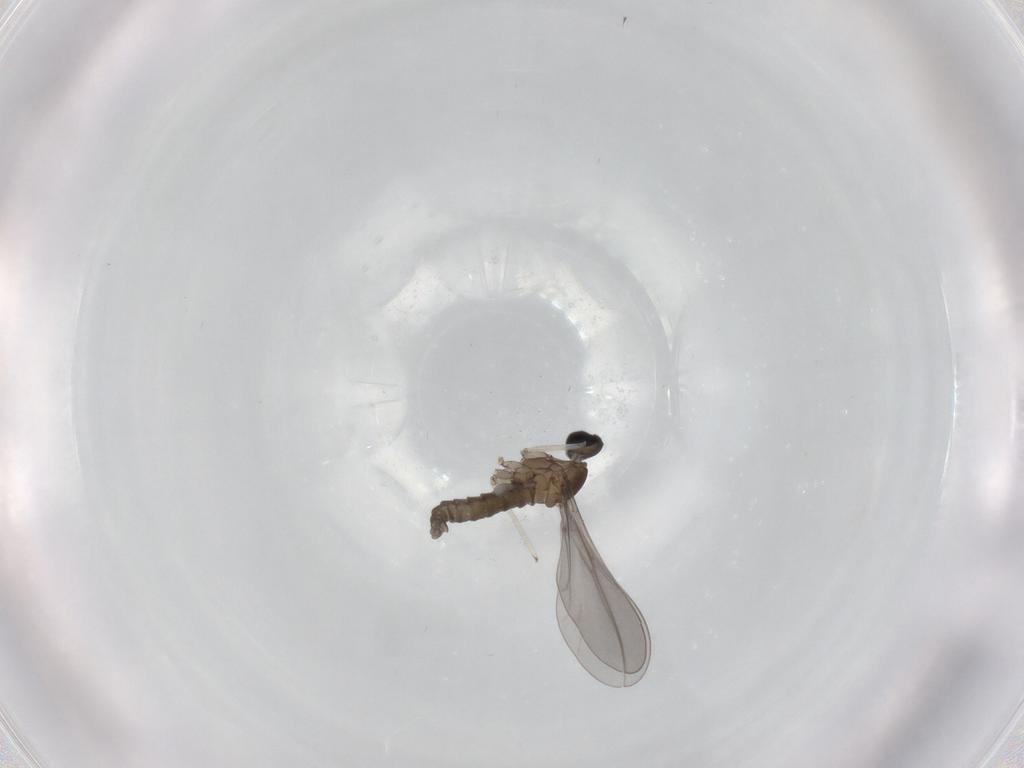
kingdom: Animalia
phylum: Arthropoda
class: Insecta
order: Diptera
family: Cecidomyiidae
